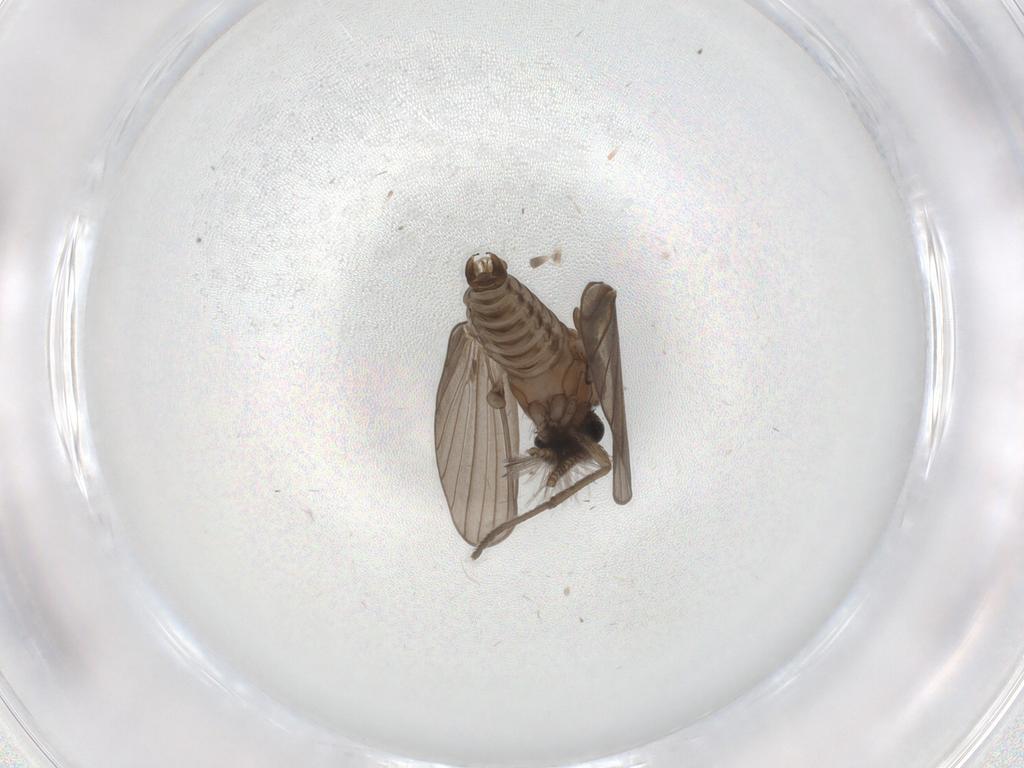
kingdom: Animalia
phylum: Arthropoda
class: Insecta
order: Diptera
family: Chironomidae
